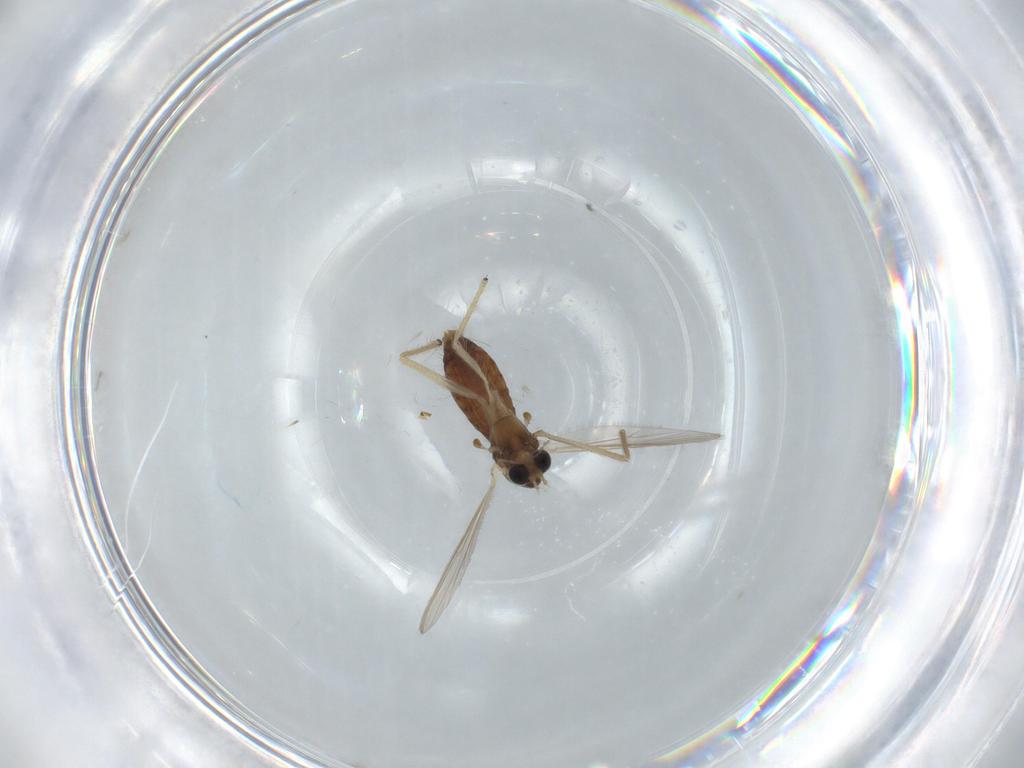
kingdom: Animalia
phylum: Arthropoda
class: Insecta
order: Diptera
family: Chironomidae
